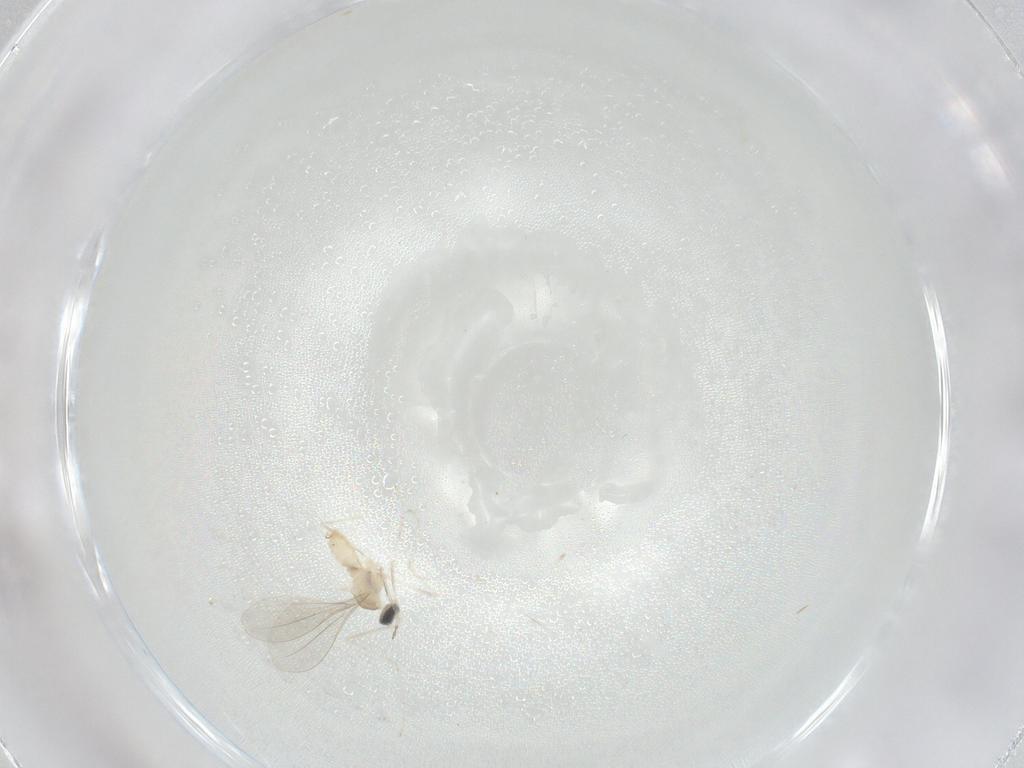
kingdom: Animalia
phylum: Arthropoda
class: Insecta
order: Diptera
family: Cecidomyiidae
